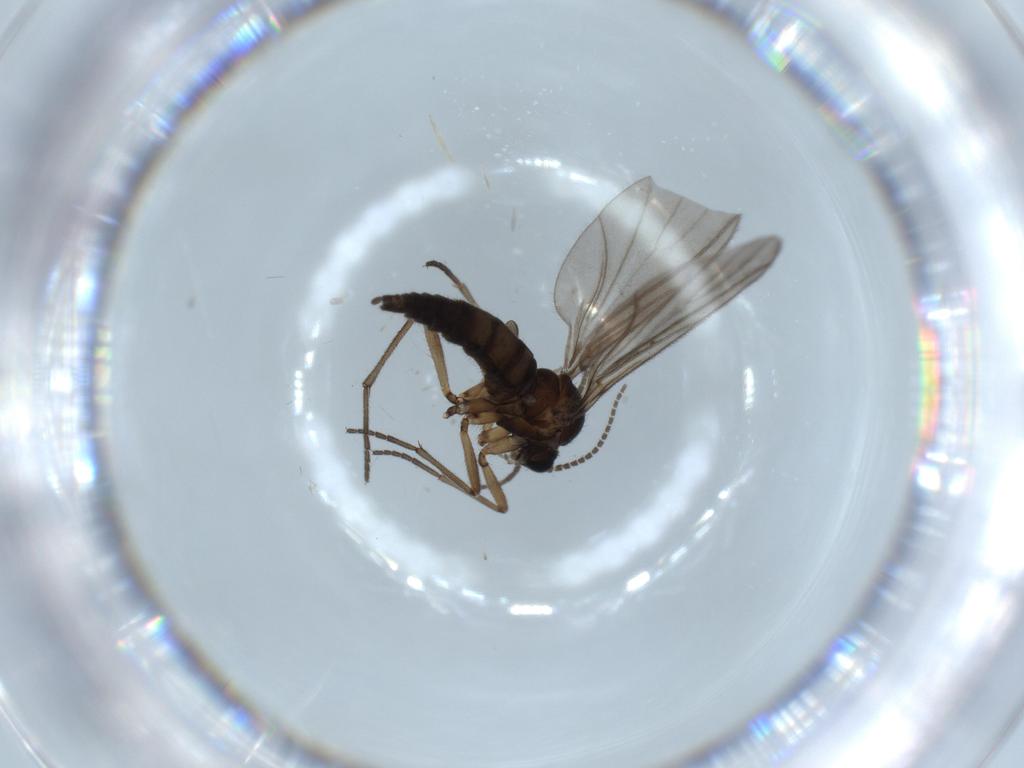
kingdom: Animalia
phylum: Arthropoda
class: Insecta
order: Diptera
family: Sciaridae
